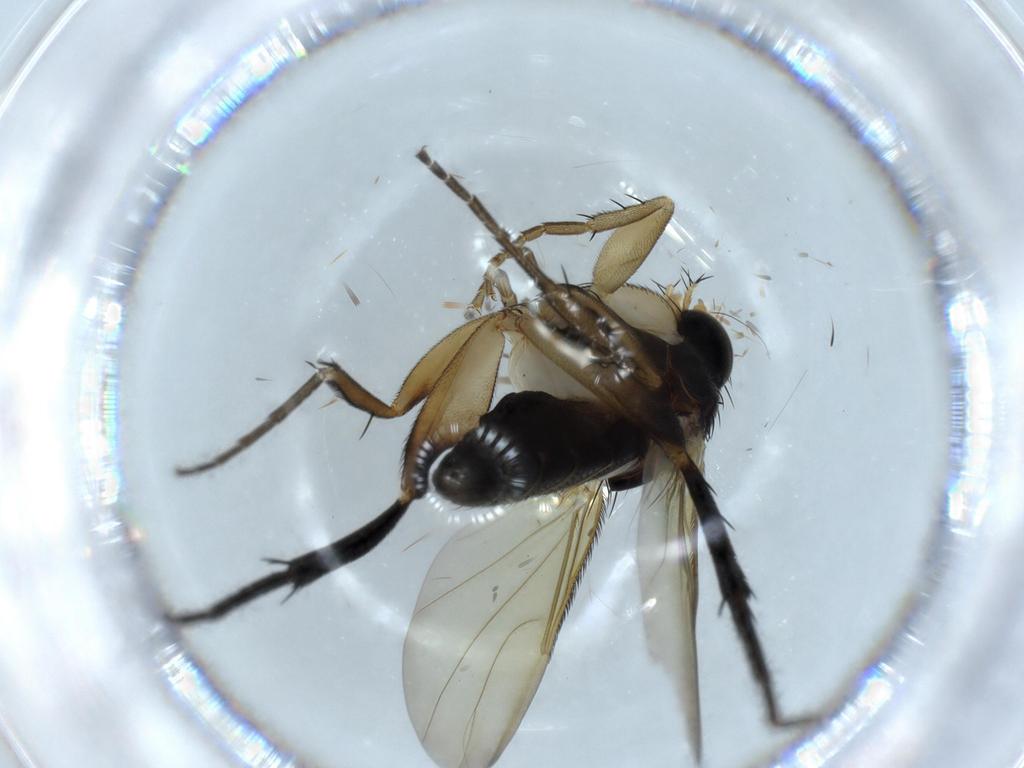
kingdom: Animalia
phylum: Arthropoda
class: Insecta
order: Diptera
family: Phoridae
